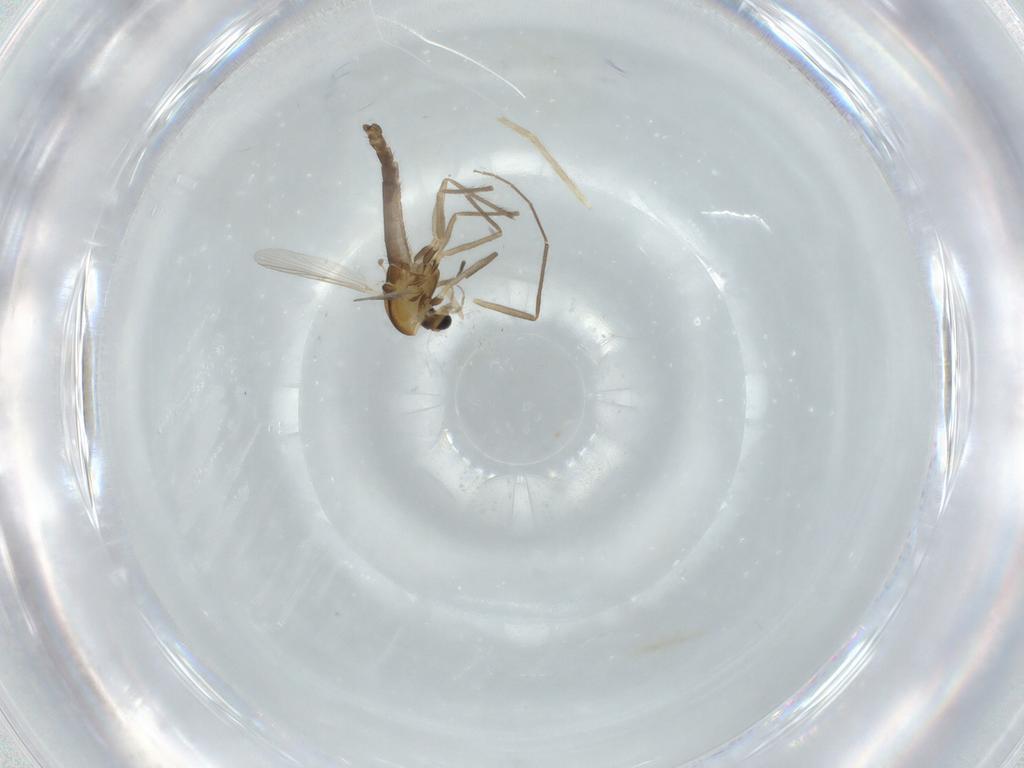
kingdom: Animalia
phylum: Arthropoda
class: Insecta
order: Diptera
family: Chironomidae
